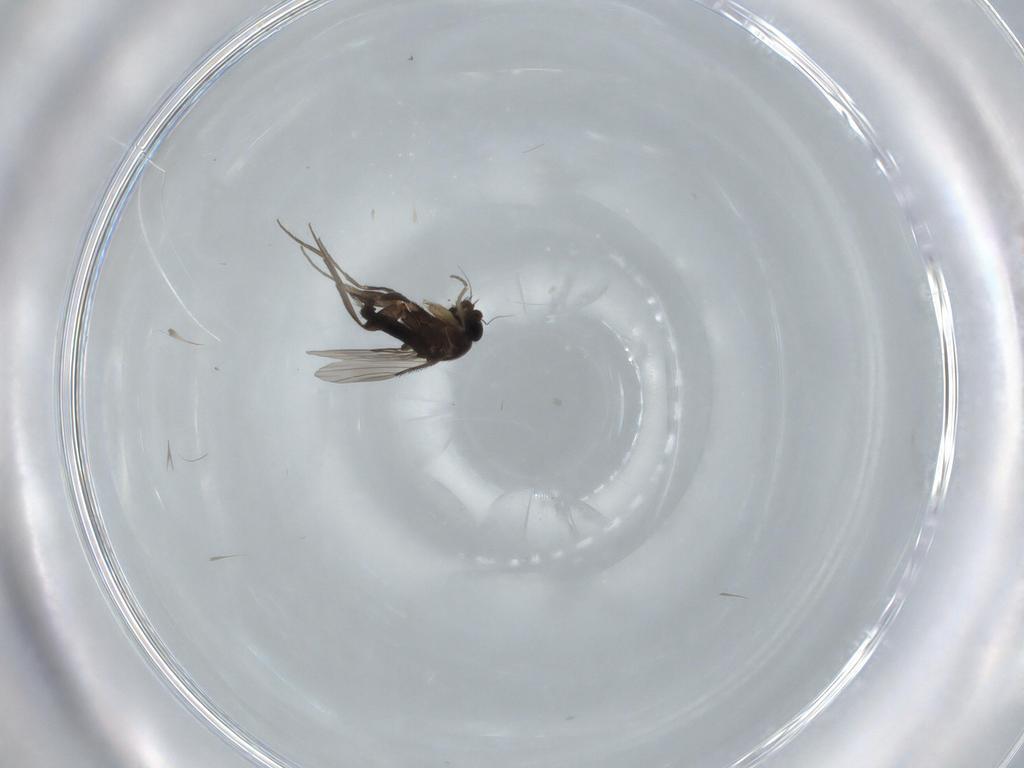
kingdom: Animalia
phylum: Arthropoda
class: Insecta
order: Diptera
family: Phoridae
